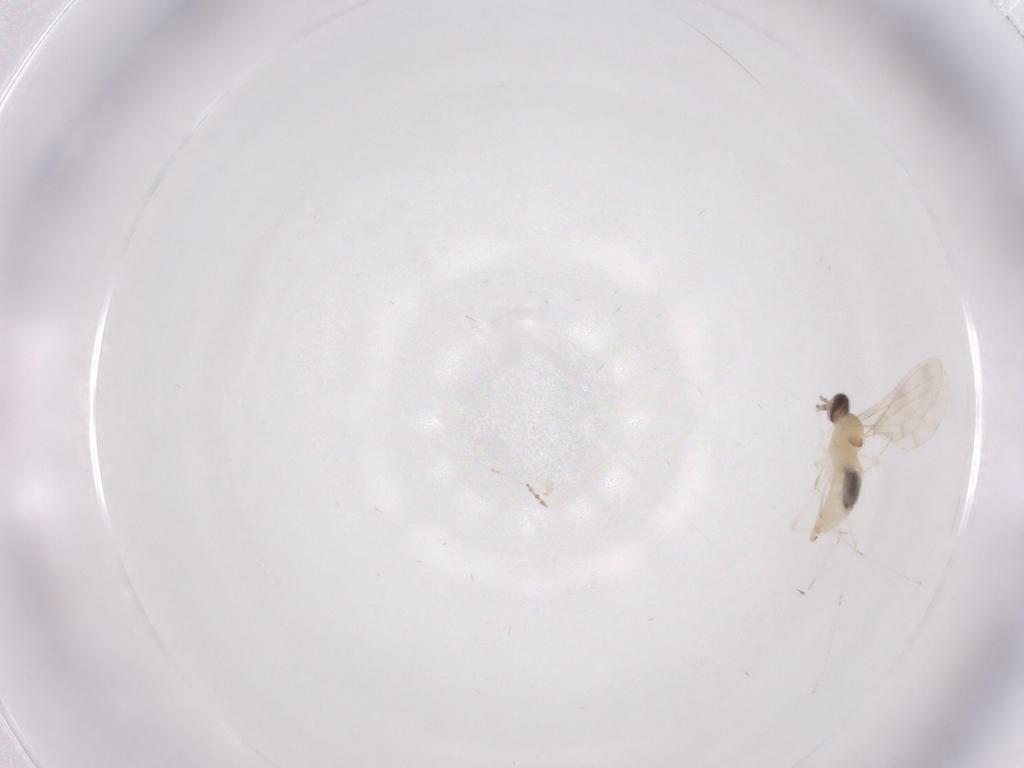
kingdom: Animalia
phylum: Arthropoda
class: Insecta
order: Diptera
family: Cecidomyiidae
